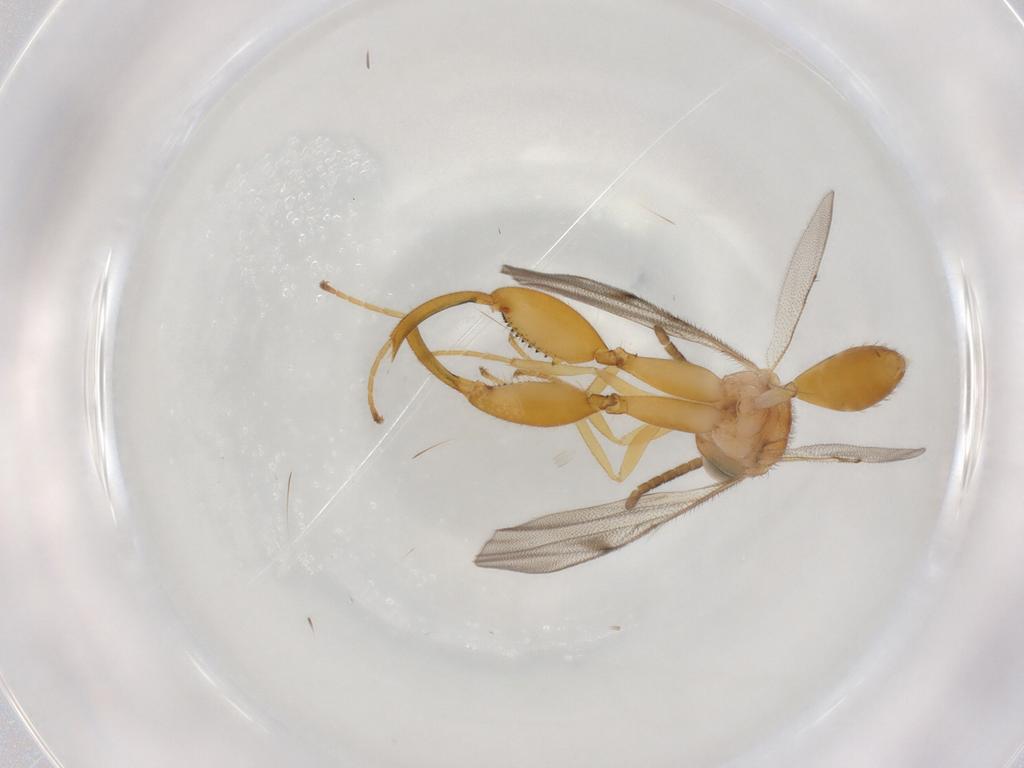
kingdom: Animalia
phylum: Arthropoda
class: Insecta
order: Hymenoptera
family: Chalcididae
